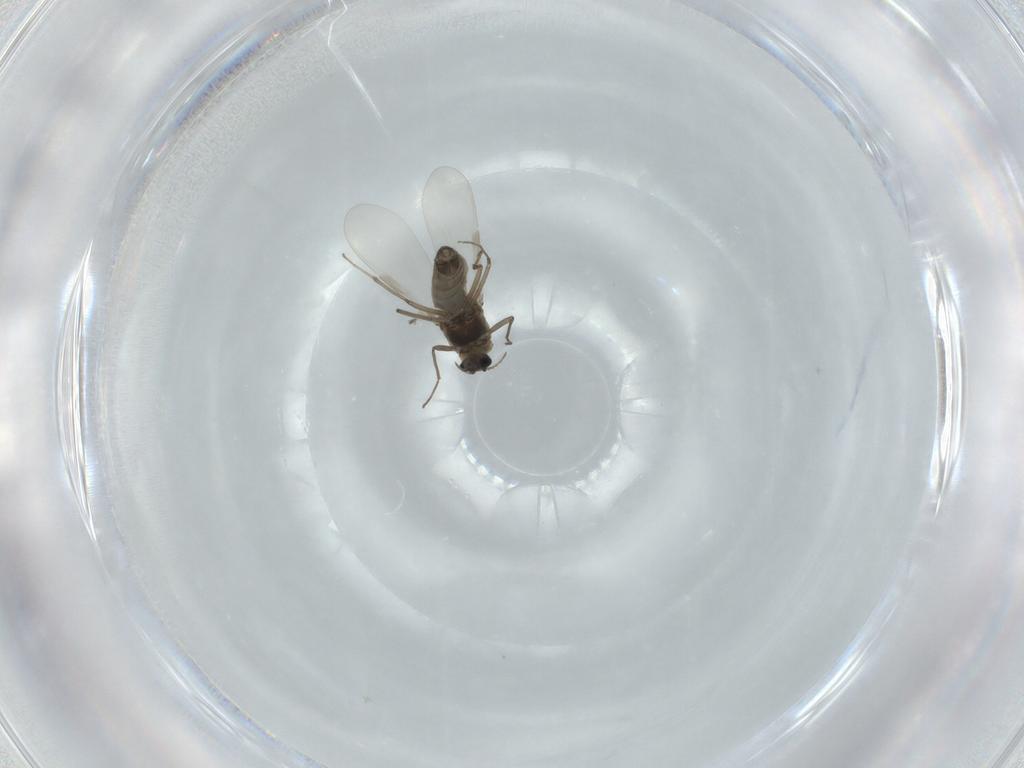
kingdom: Animalia
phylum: Arthropoda
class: Insecta
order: Diptera
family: Chironomidae
